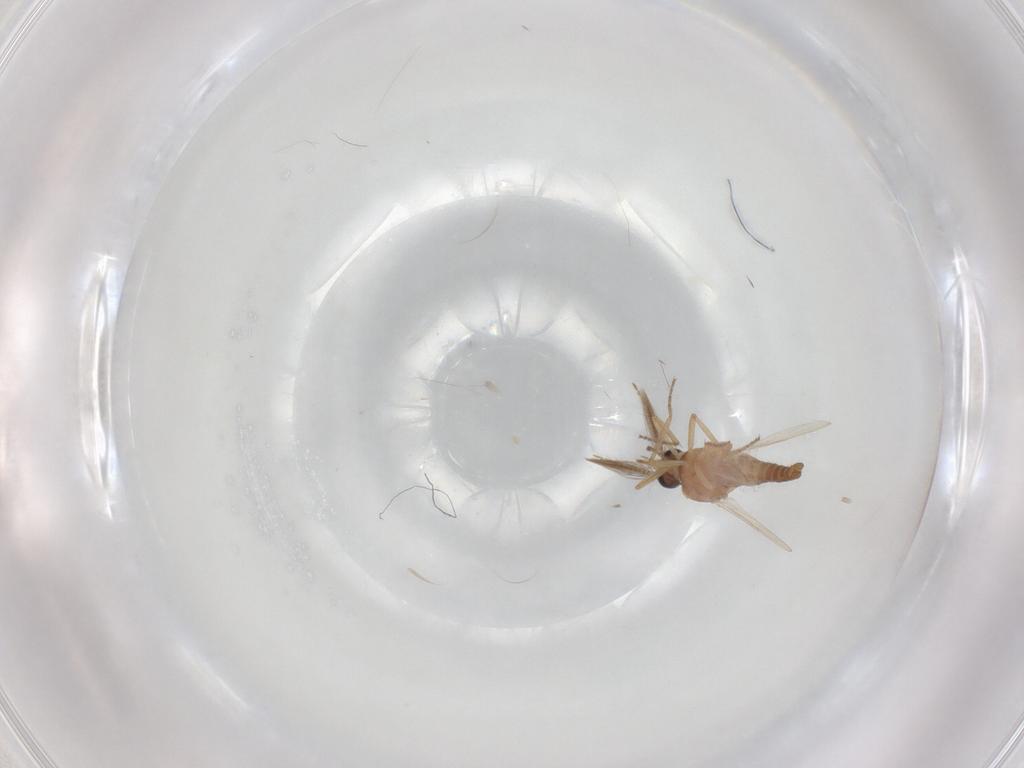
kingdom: Animalia
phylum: Arthropoda
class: Insecta
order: Diptera
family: Ceratopogonidae
